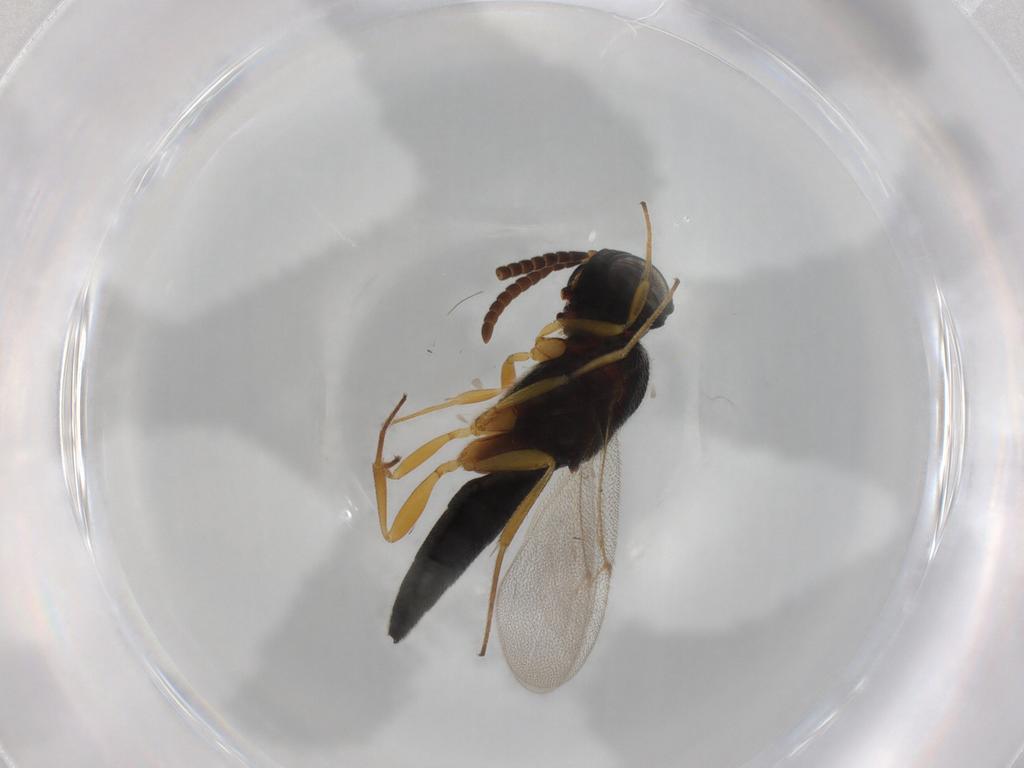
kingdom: Animalia
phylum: Arthropoda
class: Insecta
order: Hymenoptera
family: Scelionidae
